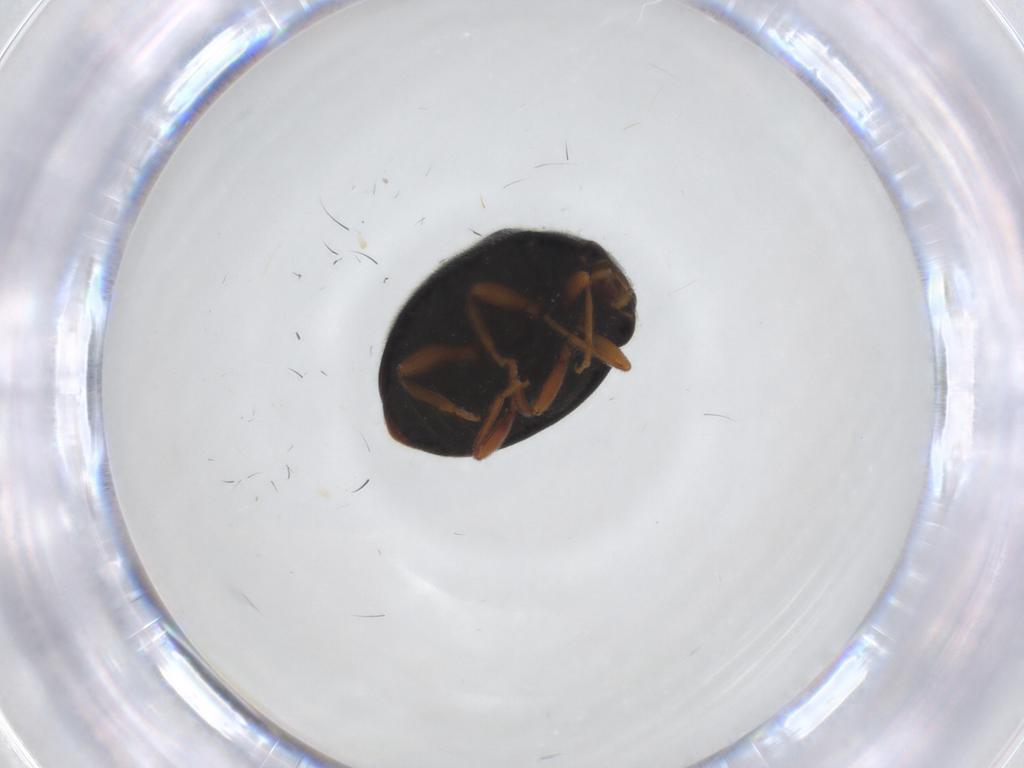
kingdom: Animalia
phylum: Arthropoda
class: Insecta
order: Coleoptera
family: Coccinellidae
